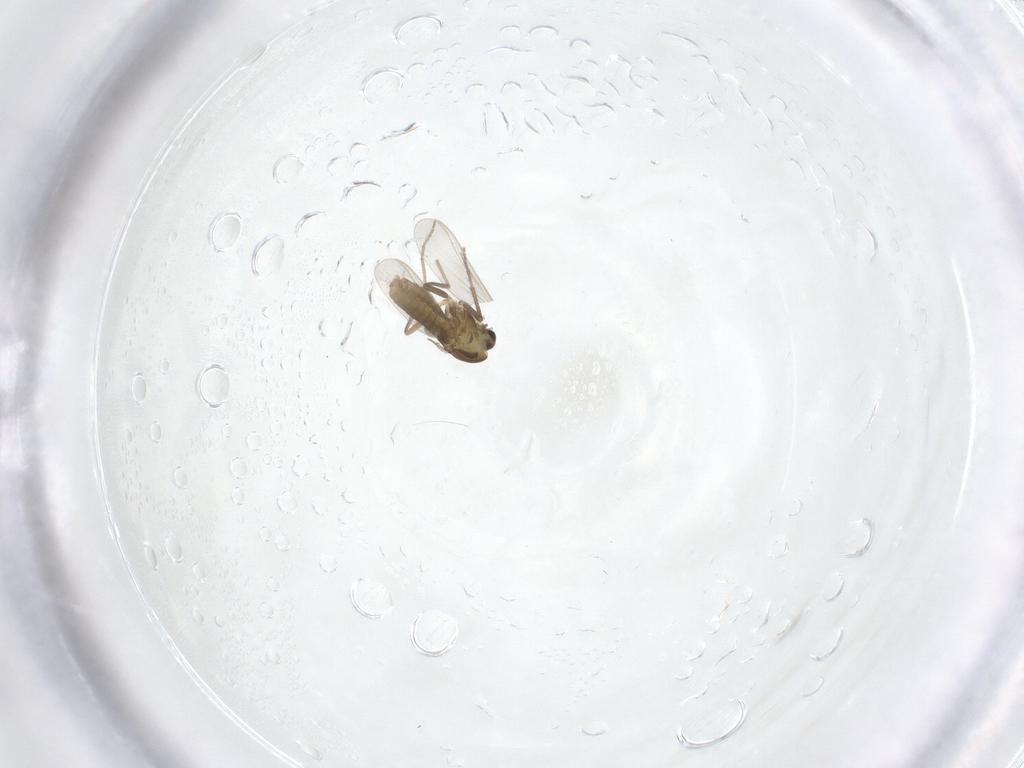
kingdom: Animalia
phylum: Arthropoda
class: Insecta
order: Diptera
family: Chironomidae
